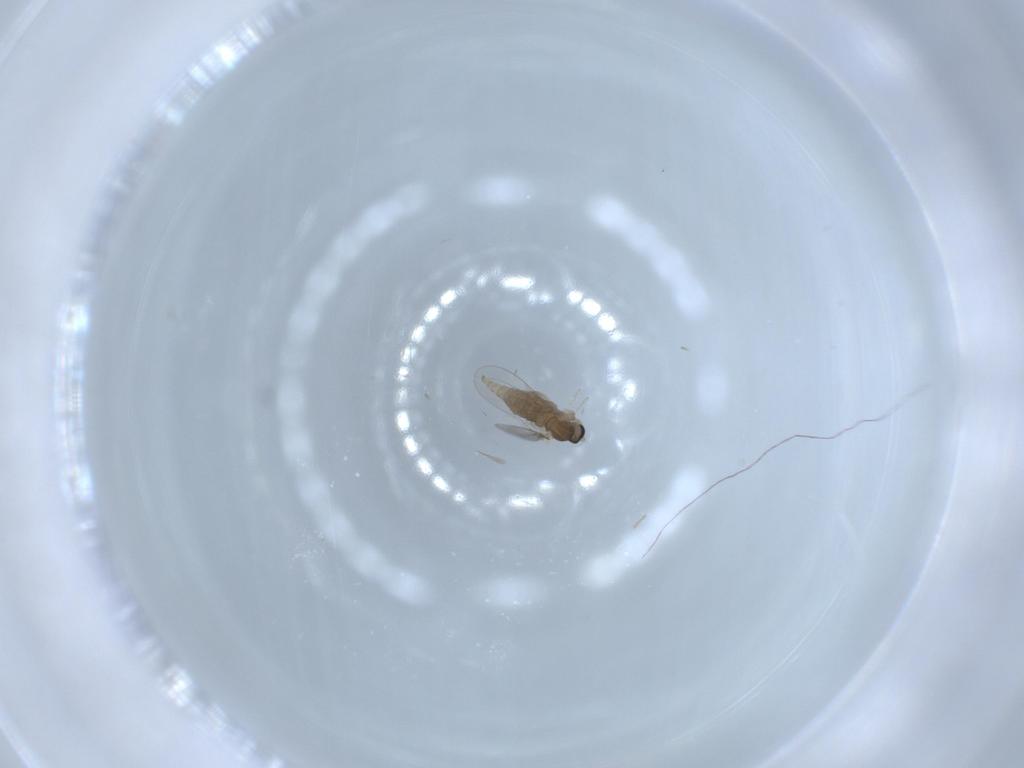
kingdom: Animalia
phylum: Arthropoda
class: Insecta
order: Diptera
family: Cecidomyiidae
